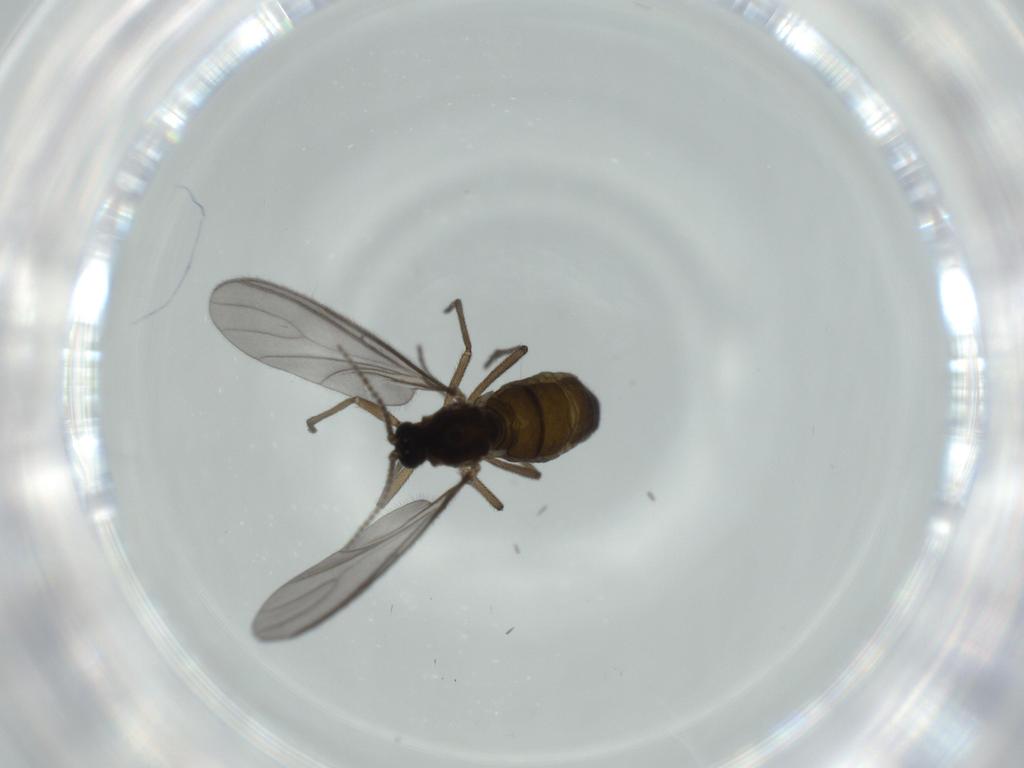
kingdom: Animalia
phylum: Arthropoda
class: Insecta
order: Diptera
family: Sciaridae
